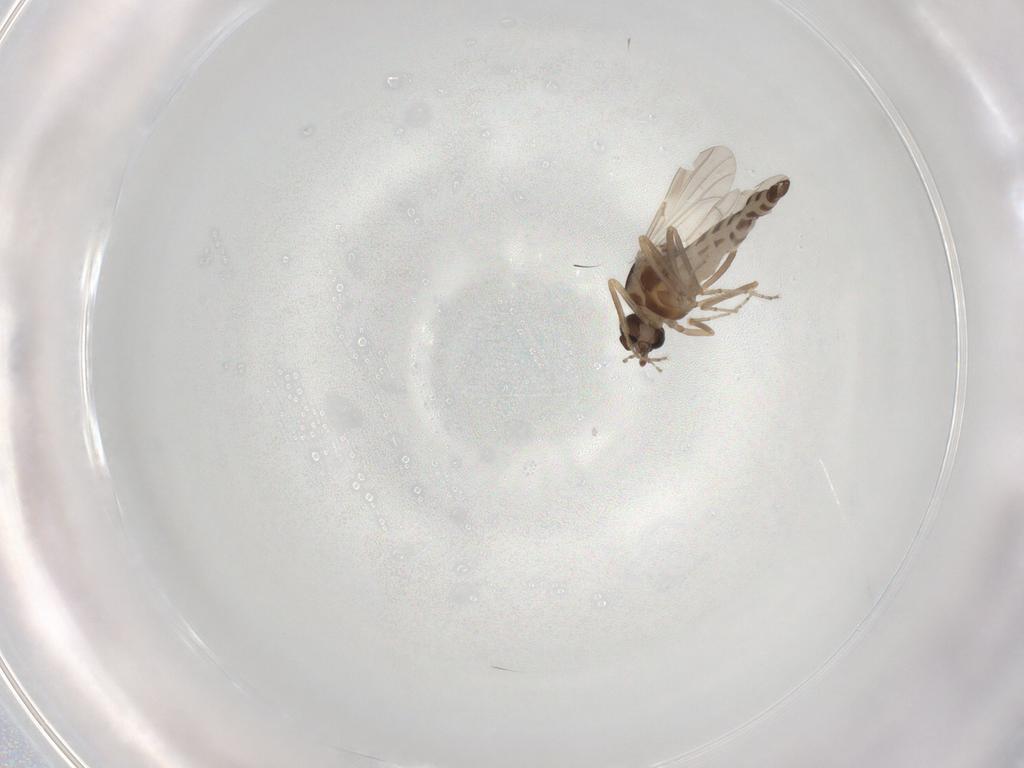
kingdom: Animalia
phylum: Arthropoda
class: Insecta
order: Diptera
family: Ceratopogonidae
